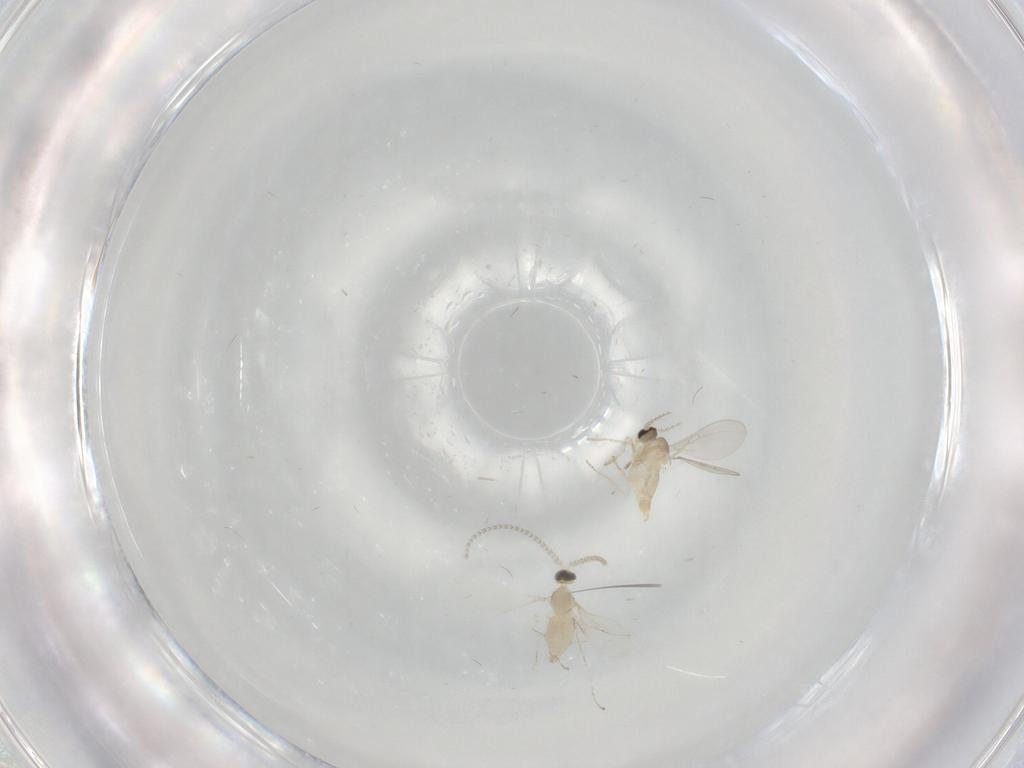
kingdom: Animalia
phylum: Arthropoda
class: Insecta
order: Diptera
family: Cecidomyiidae
